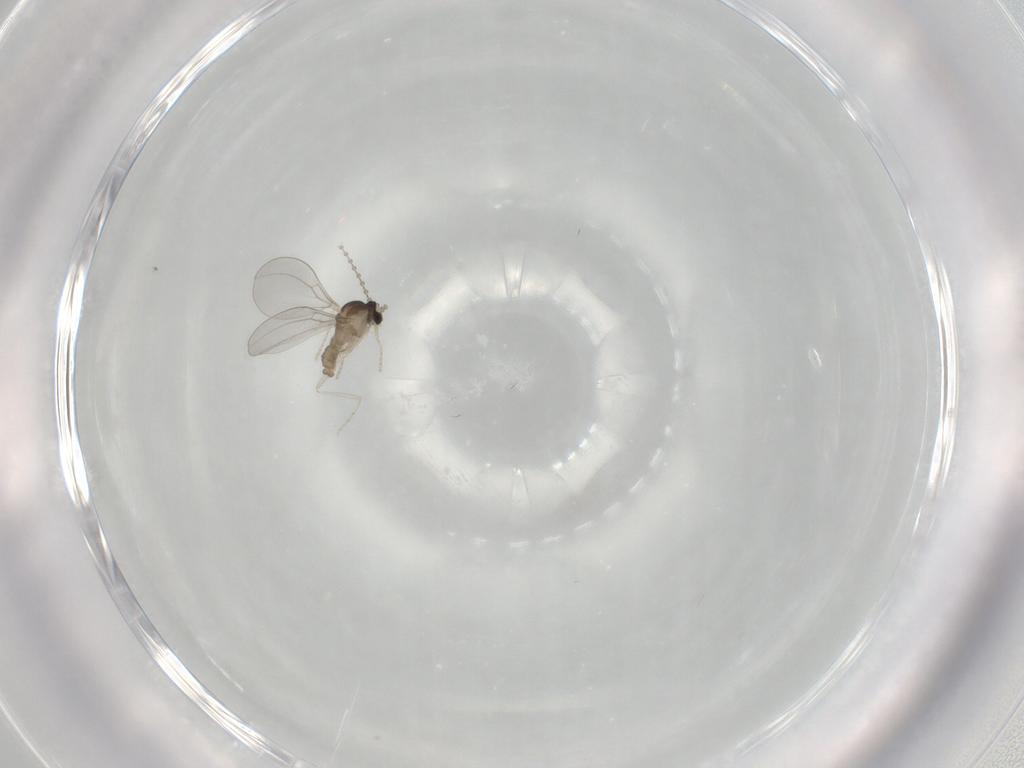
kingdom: Animalia
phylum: Arthropoda
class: Insecta
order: Diptera
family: Cecidomyiidae
